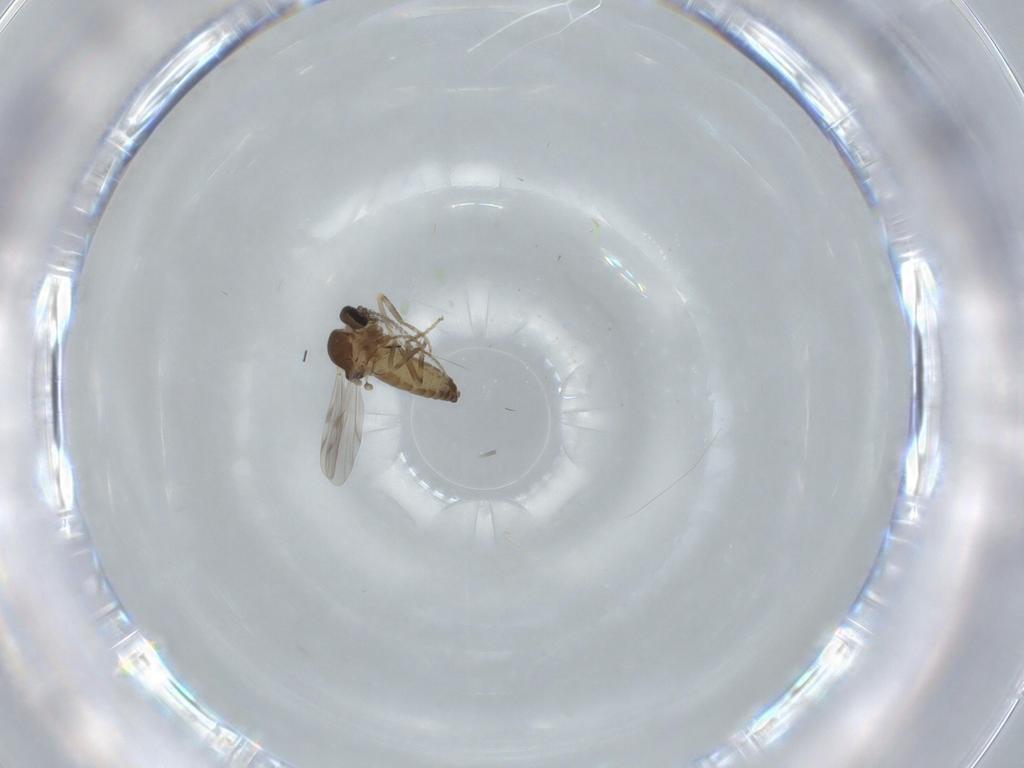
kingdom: Animalia
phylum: Arthropoda
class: Insecta
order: Diptera
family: Ceratopogonidae
